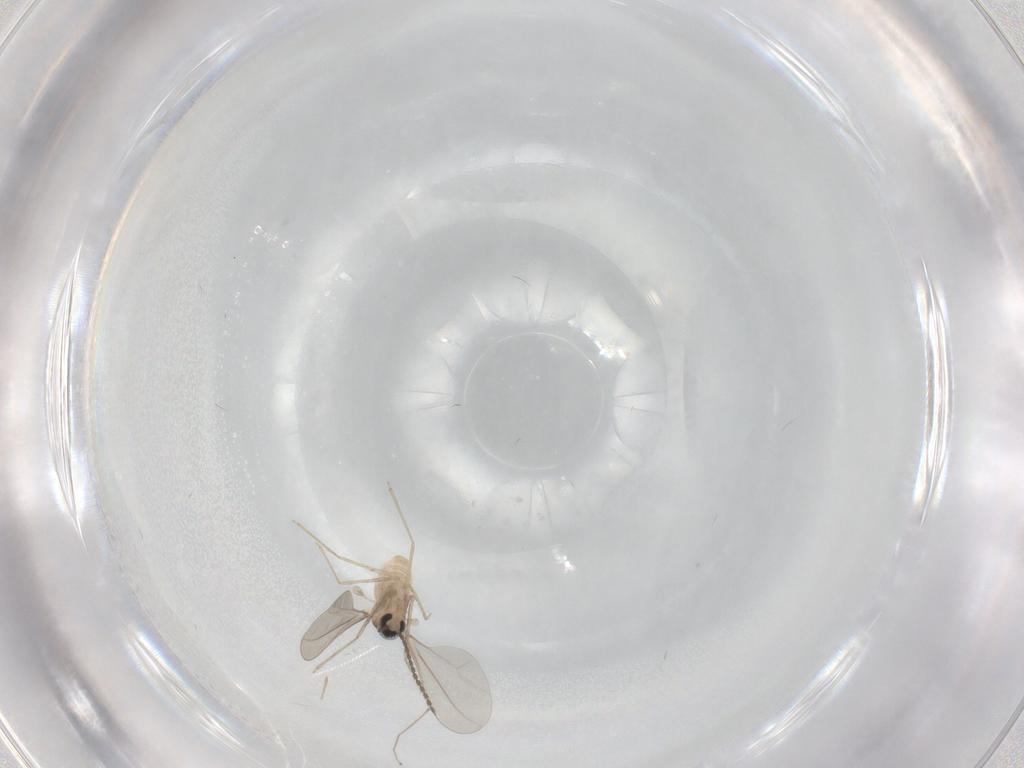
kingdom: Animalia
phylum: Arthropoda
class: Insecta
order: Diptera
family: Cecidomyiidae
